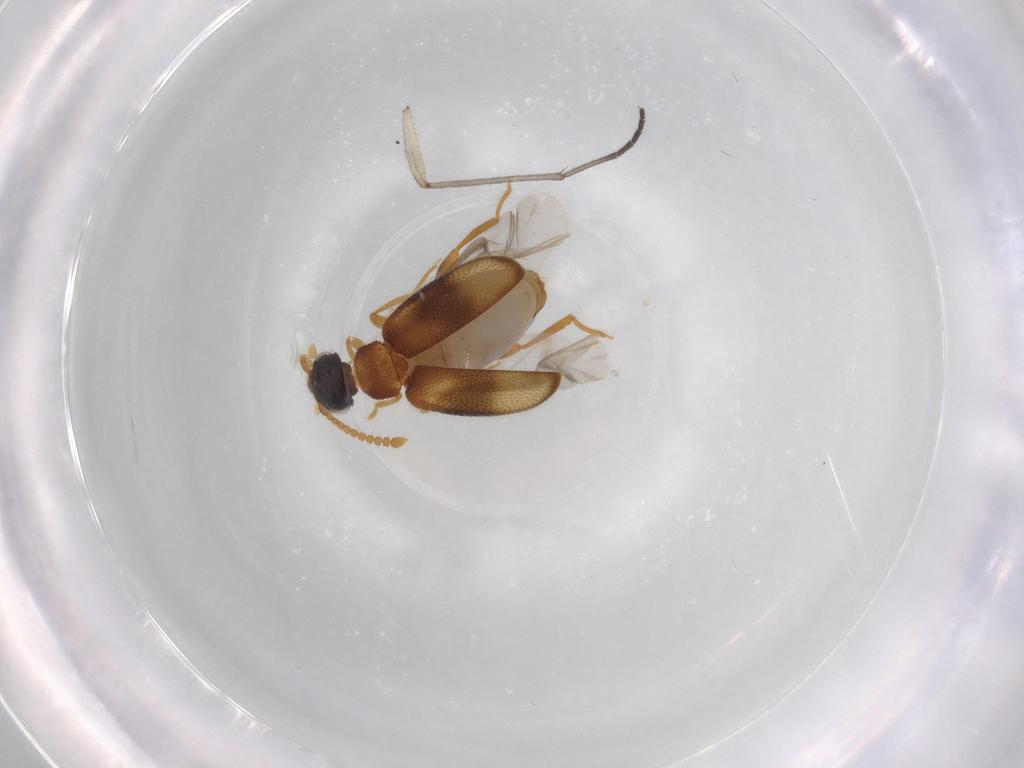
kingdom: Animalia
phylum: Arthropoda
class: Insecta
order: Coleoptera
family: Aderidae
